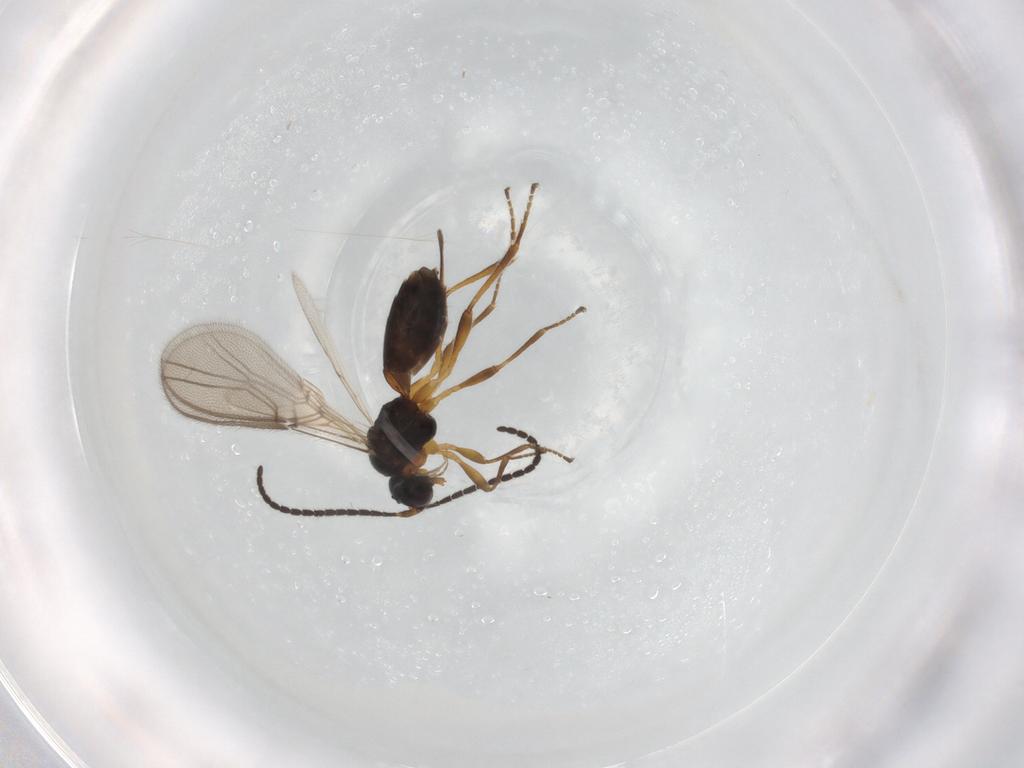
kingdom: Animalia
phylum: Arthropoda
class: Insecta
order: Hymenoptera
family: Braconidae
